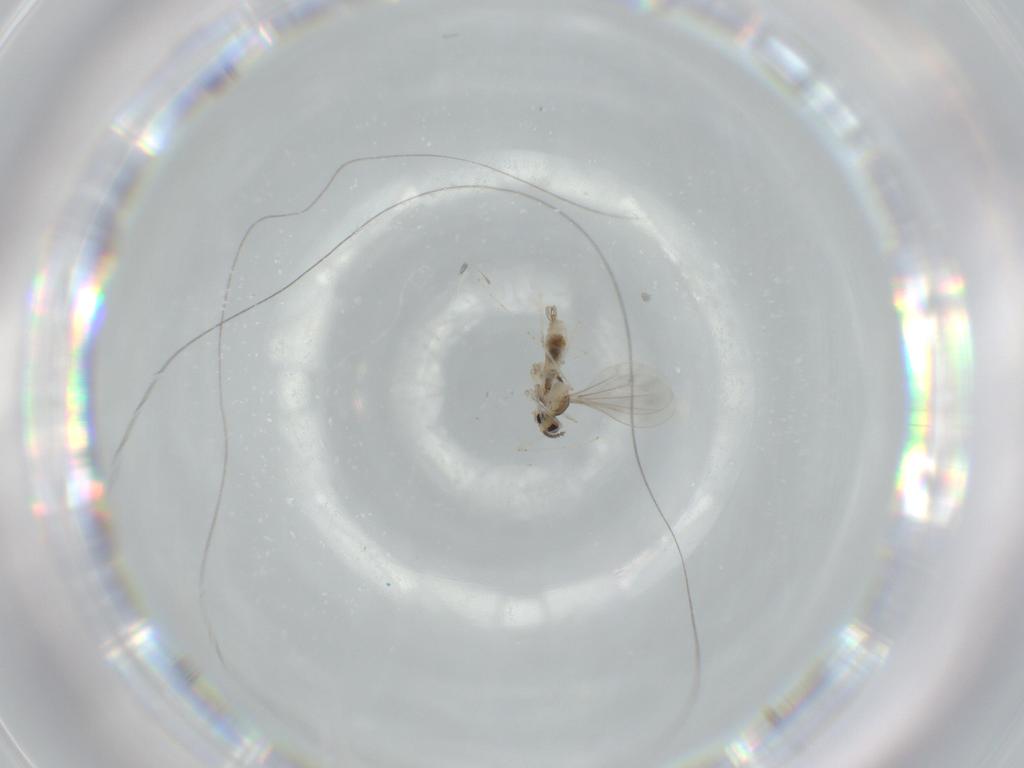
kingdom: Animalia
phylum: Arthropoda
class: Insecta
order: Diptera
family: Cecidomyiidae
